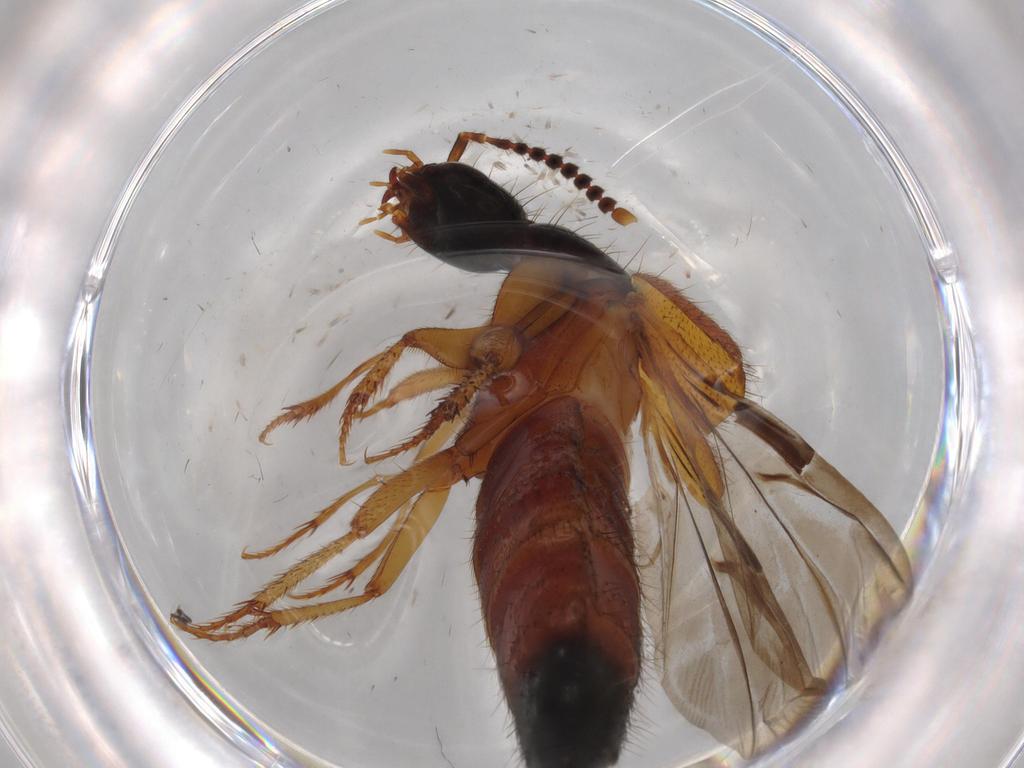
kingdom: Animalia
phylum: Arthropoda
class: Insecta
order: Coleoptera
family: Staphylinidae
